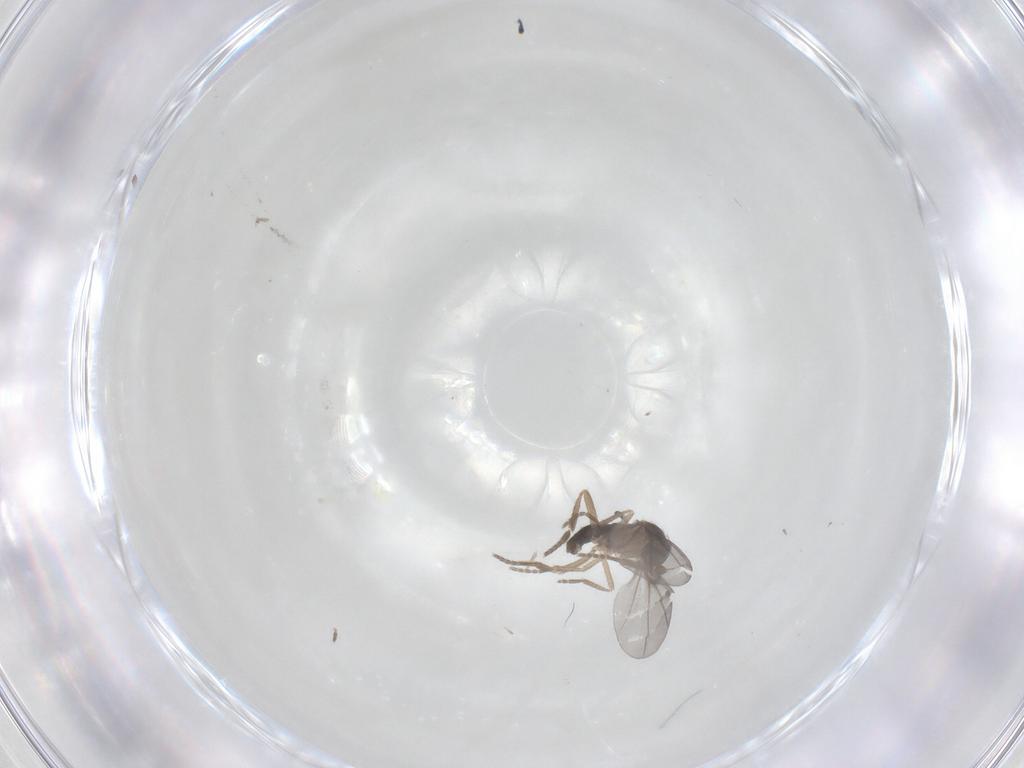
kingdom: Animalia
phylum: Arthropoda
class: Insecta
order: Diptera
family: Phoridae
